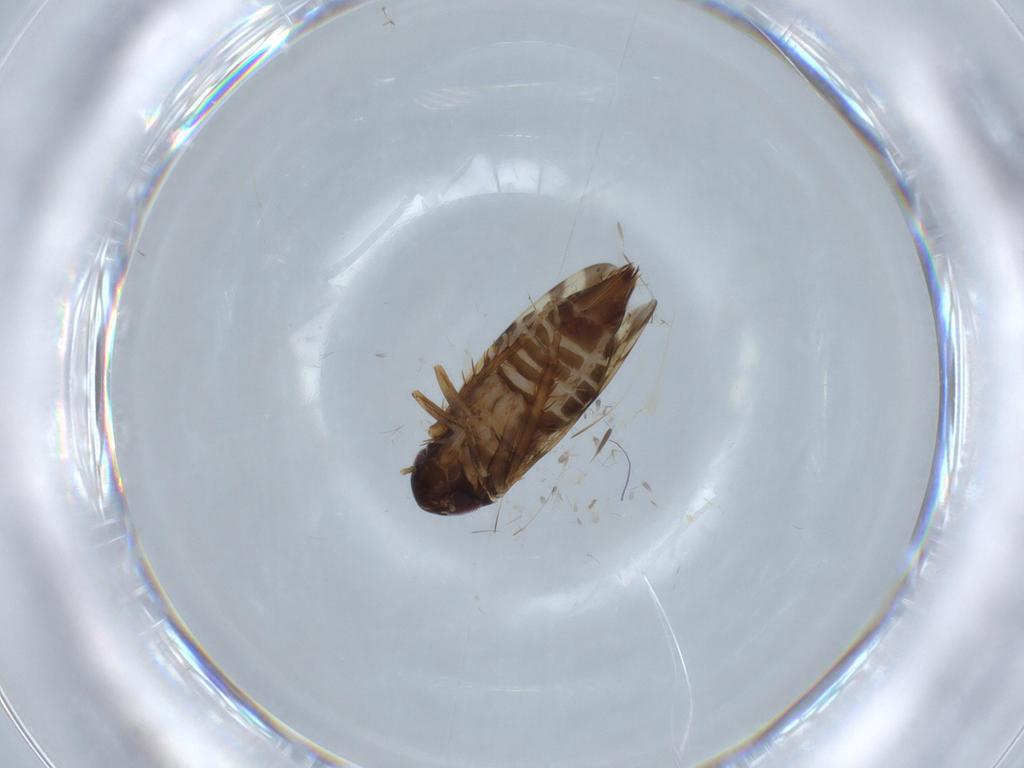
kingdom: Animalia
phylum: Arthropoda
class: Insecta
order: Hemiptera
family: Cicadellidae
